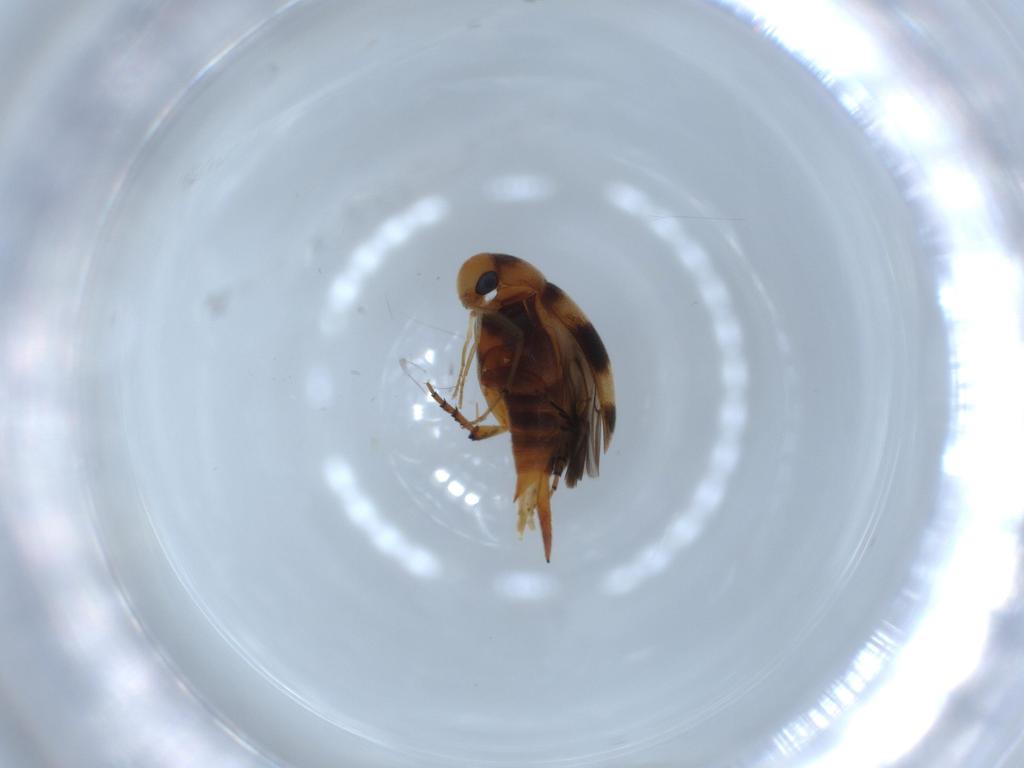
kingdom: Animalia
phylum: Arthropoda
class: Insecta
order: Coleoptera
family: Mordellidae
